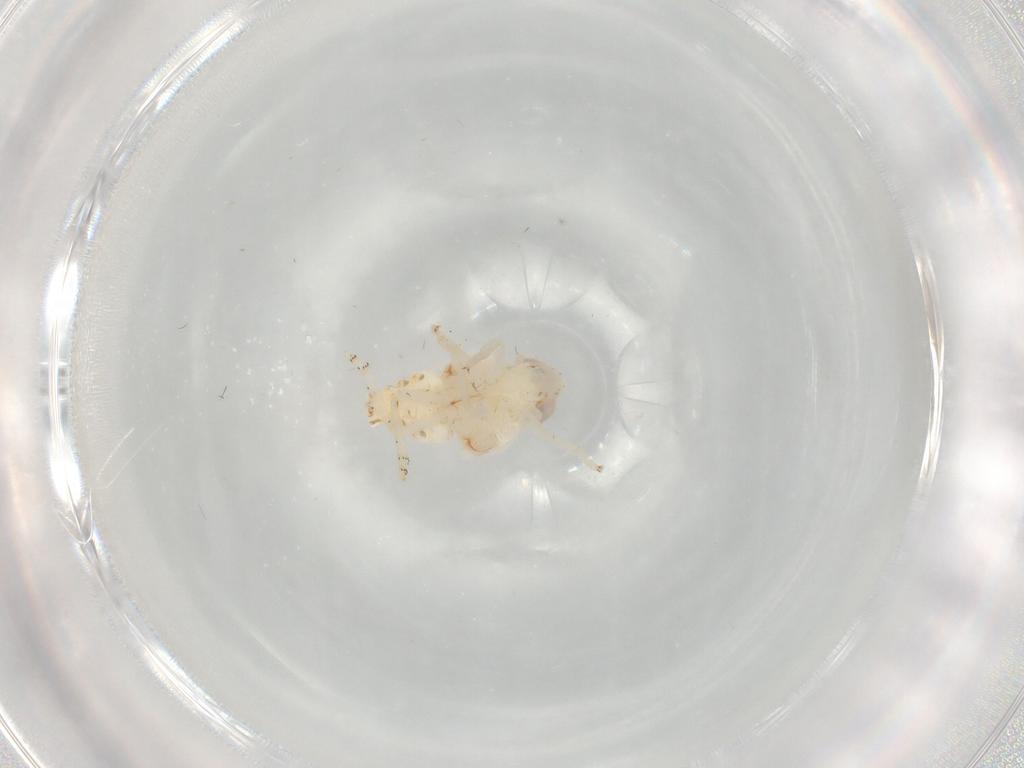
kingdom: Animalia
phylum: Arthropoda
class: Insecta
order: Hemiptera
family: Nogodinidae
